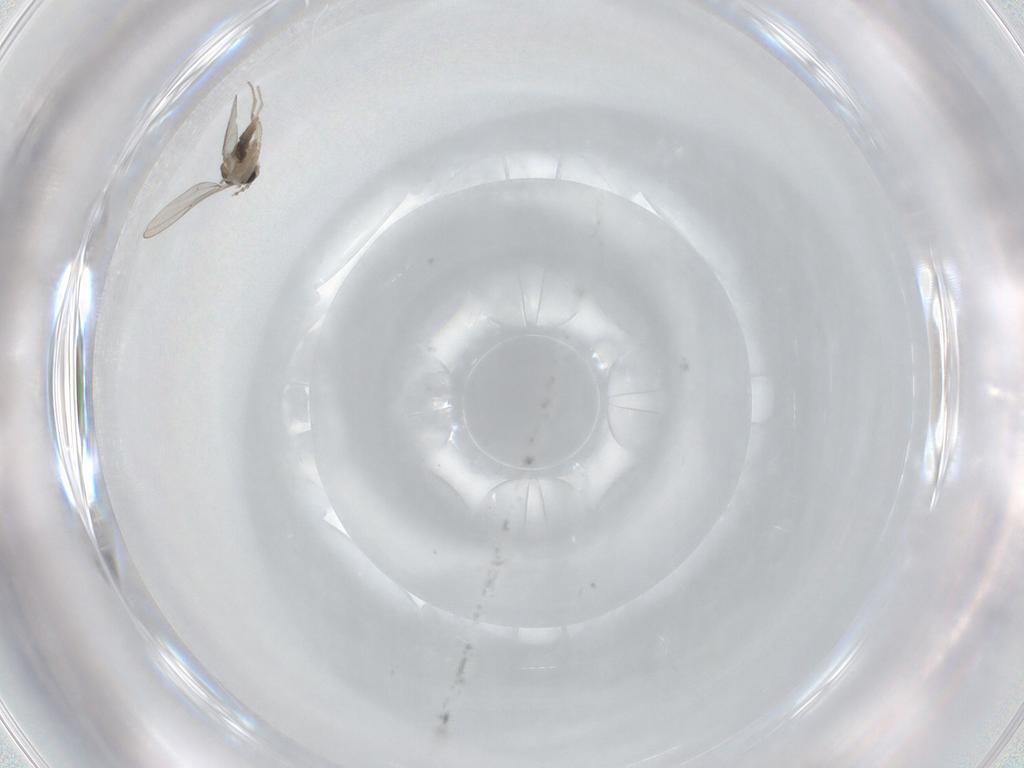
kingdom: Animalia
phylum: Arthropoda
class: Insecta
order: Diptera
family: Cecidomyiidae
